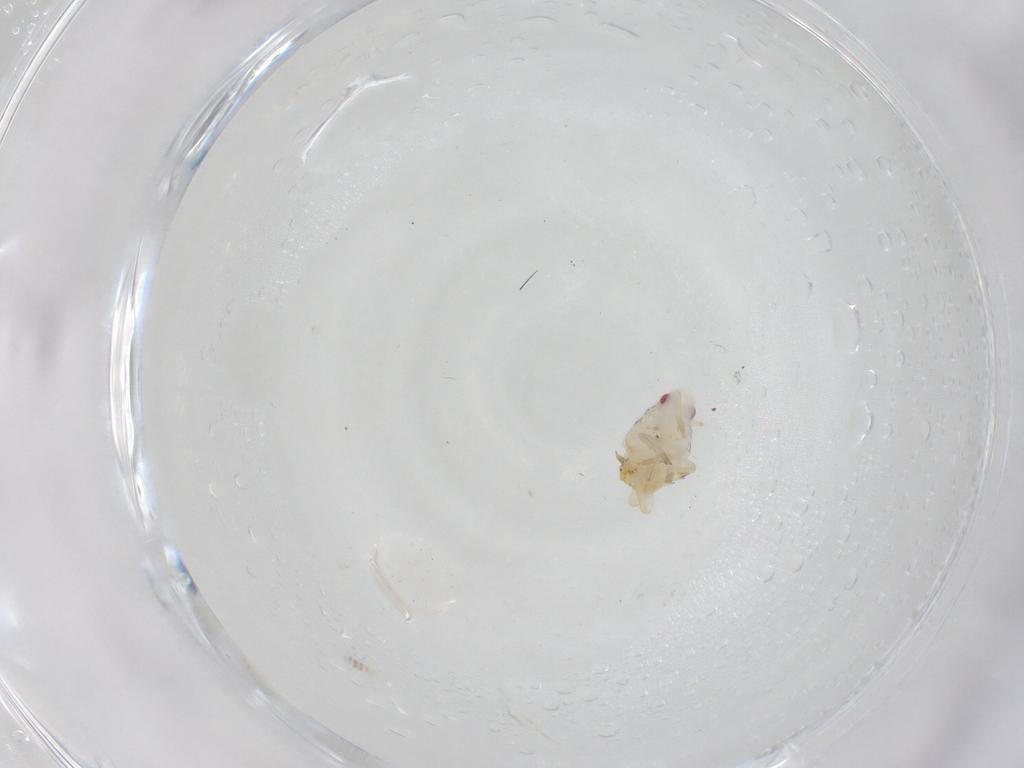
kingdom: Animalia
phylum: Arthropoda
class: Insecta
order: Hemiptera
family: Flatidae
